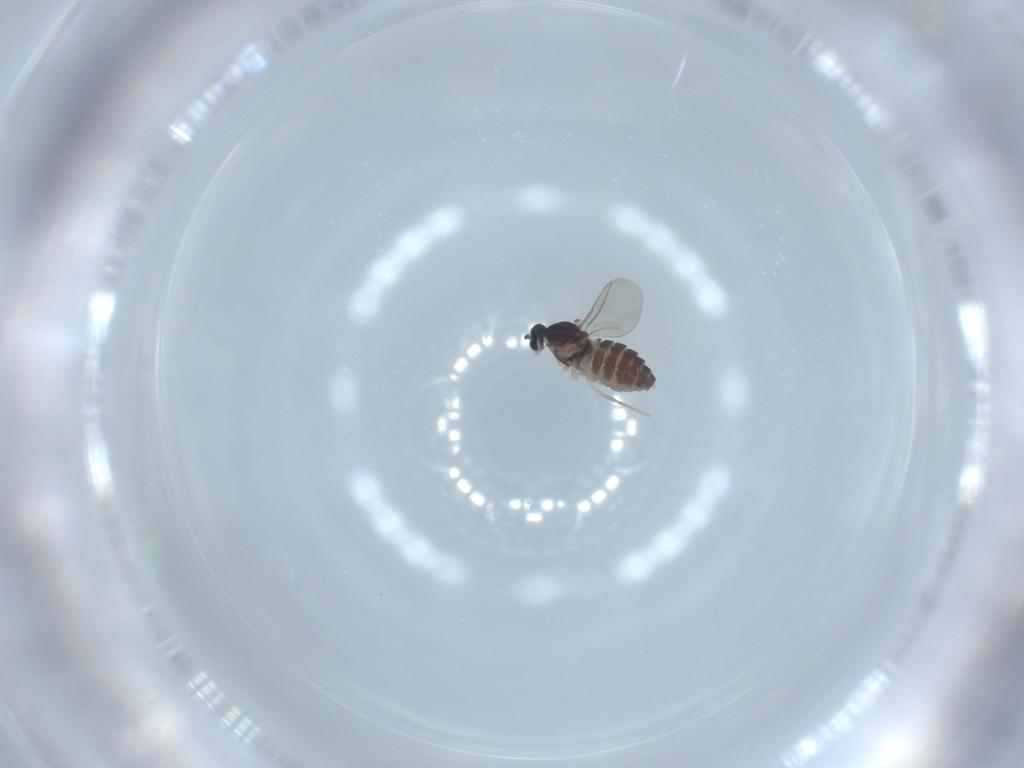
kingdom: Animalia
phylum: Arthropoda
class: Insecta
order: Diptera
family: Cecidomyiidae
